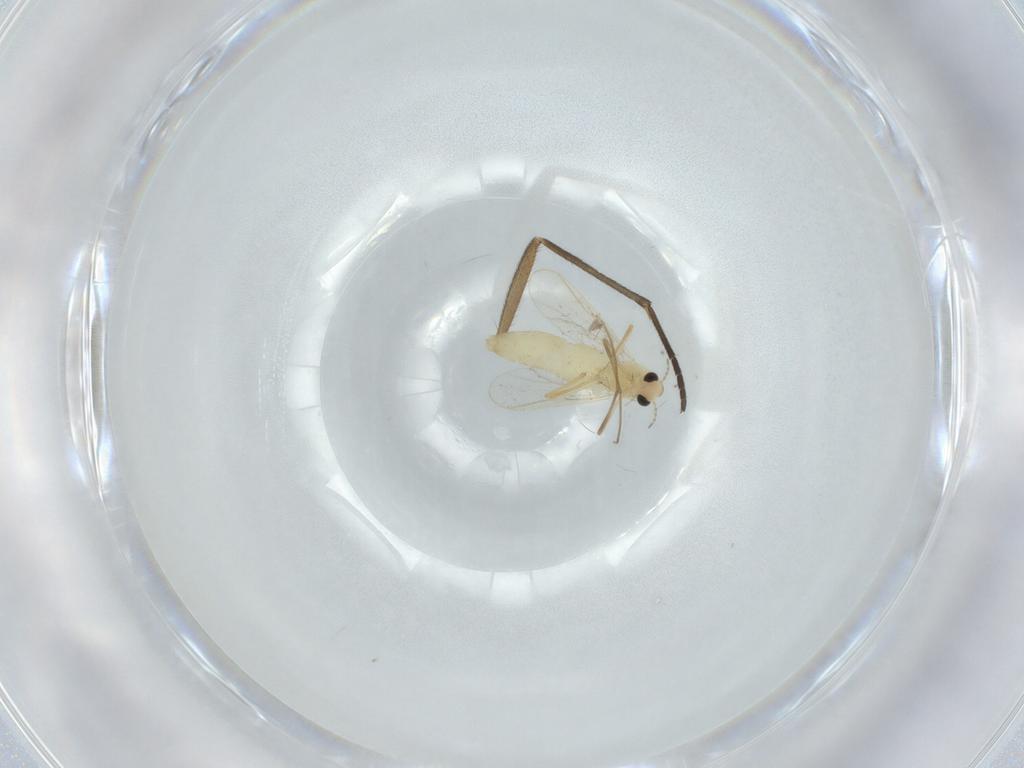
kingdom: Animalia
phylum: Arthropoda
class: Insecta
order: Diptera
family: Sciaridae
